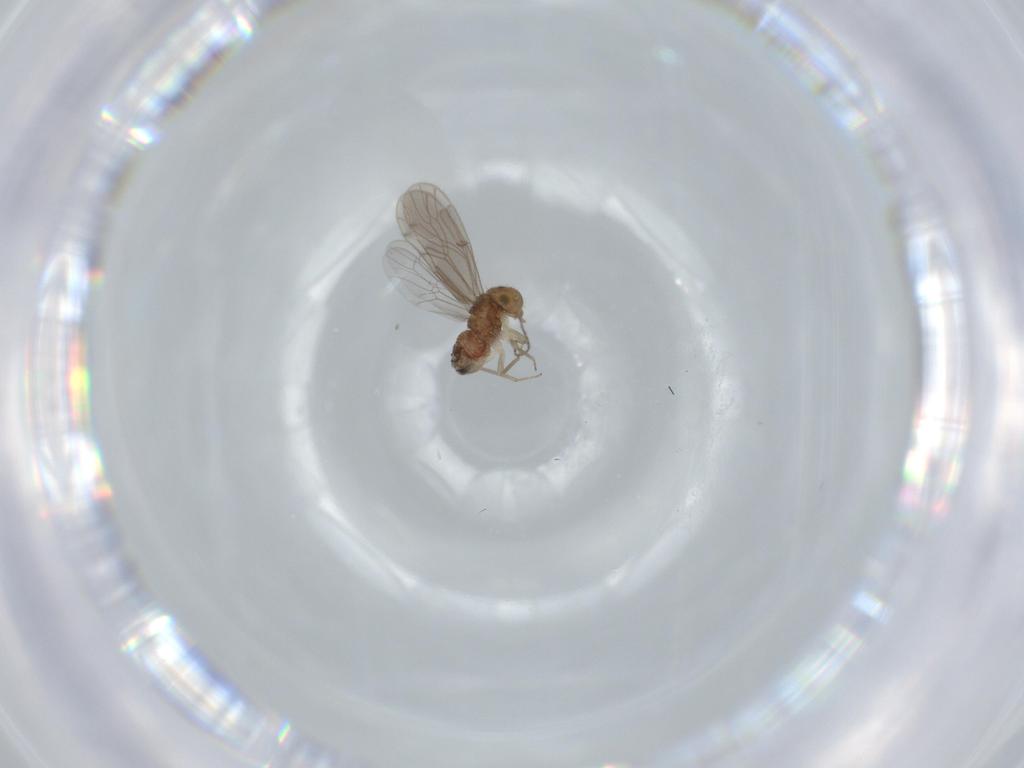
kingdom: Animalia
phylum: Arthropoda
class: Insecta
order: Psocodea
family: Ectopsocidae
